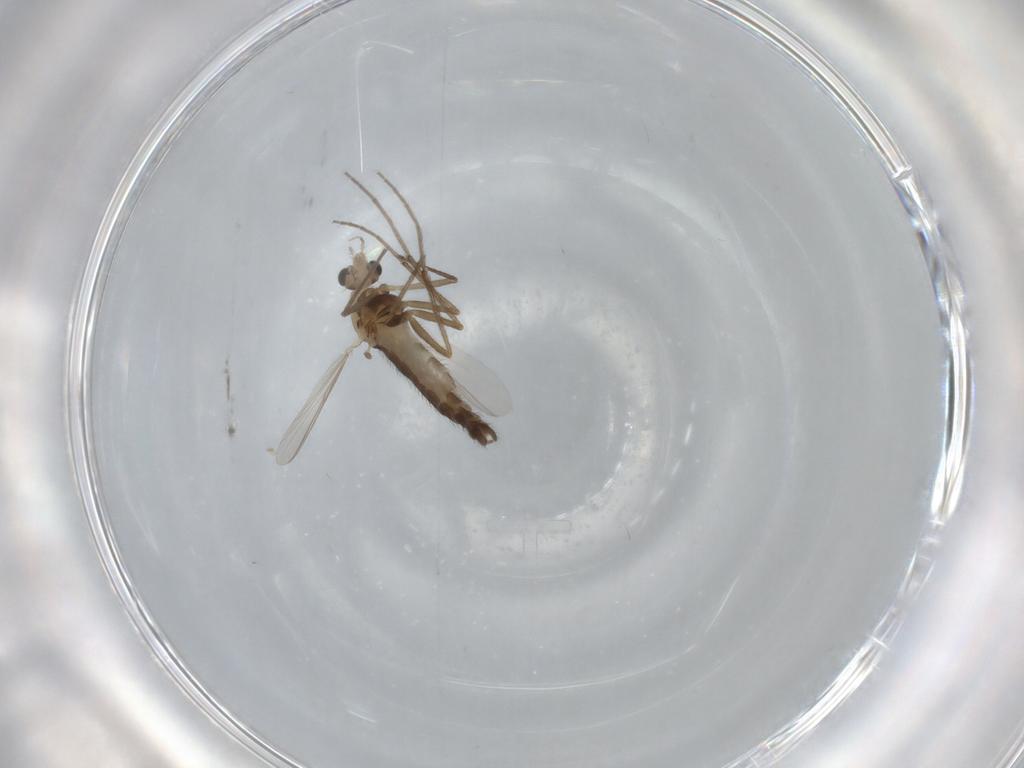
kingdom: Animalia
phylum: Arthropoda
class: Insecta
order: Diptera
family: Chironomidae
